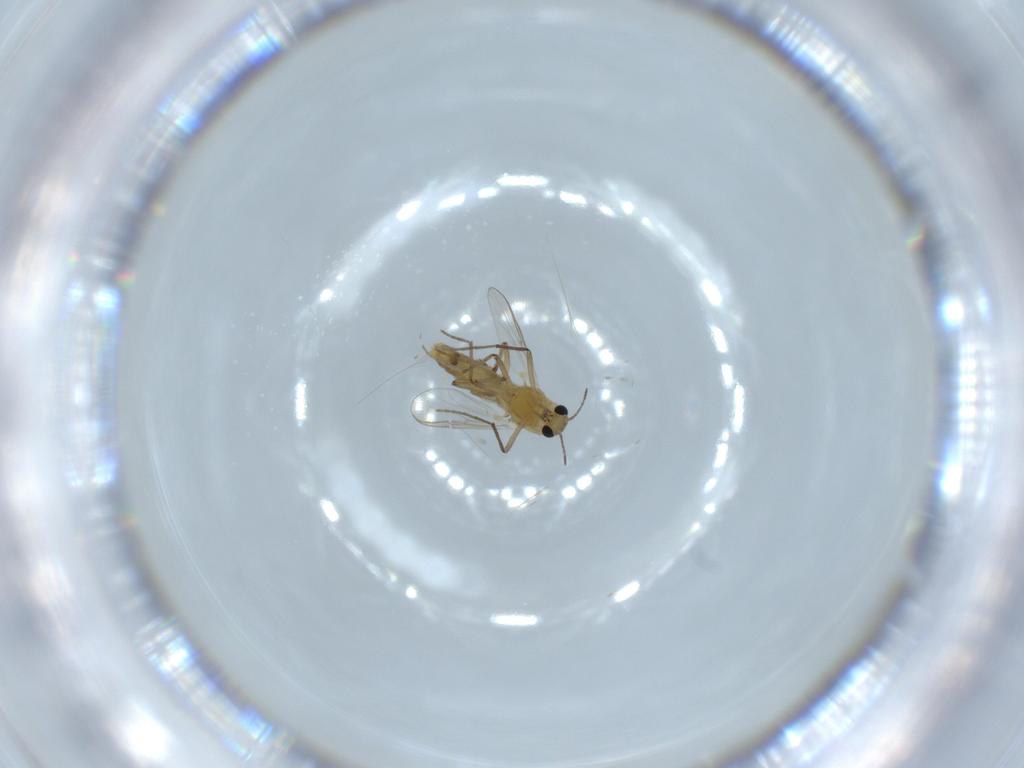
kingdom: Animalia
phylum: Arthropoda
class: Insecta
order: Diptera
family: Chironomidae
